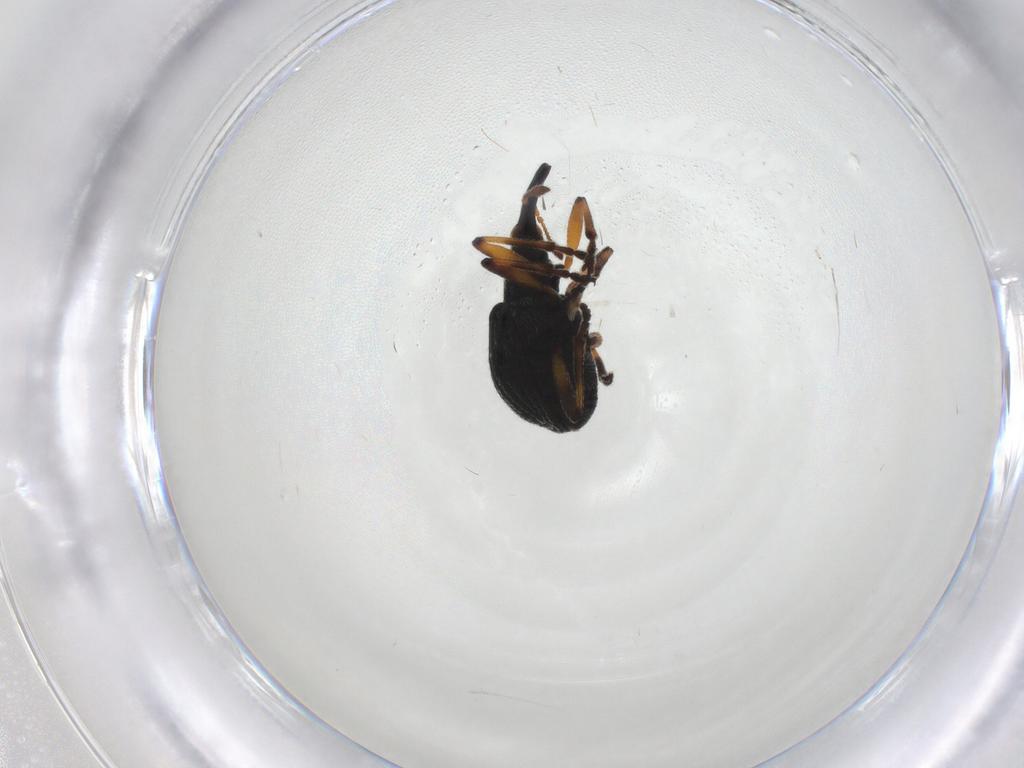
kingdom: Animalia
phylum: Arthropoda
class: Insecta
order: Coleoptera
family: Brentidae
